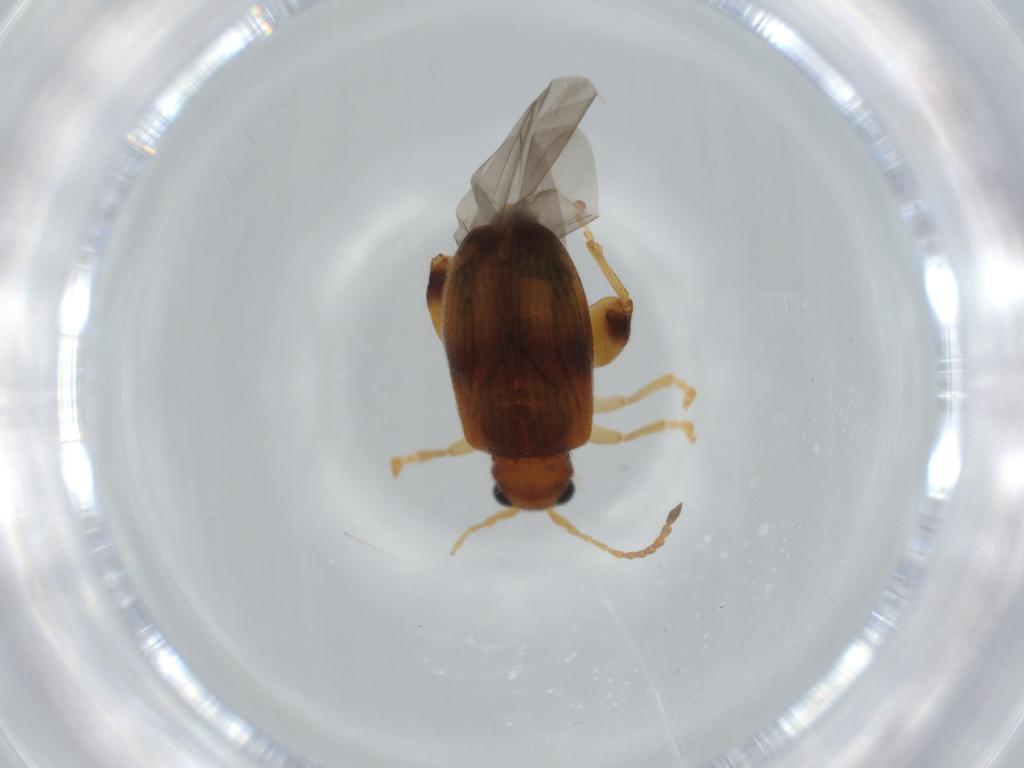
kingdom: Animalia
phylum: Arthropoda
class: Insecta
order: Coleoptera
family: Chrysomelidae
